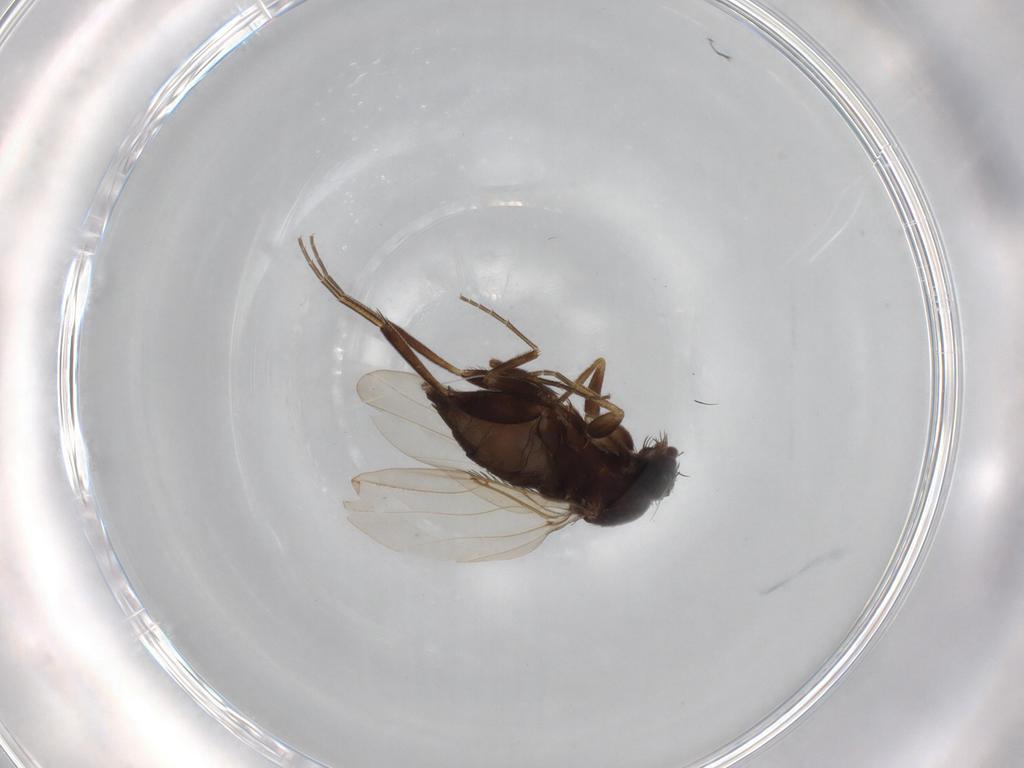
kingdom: Animalia
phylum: Arthropoda
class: Insecta
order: Diptera
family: Phoridae
